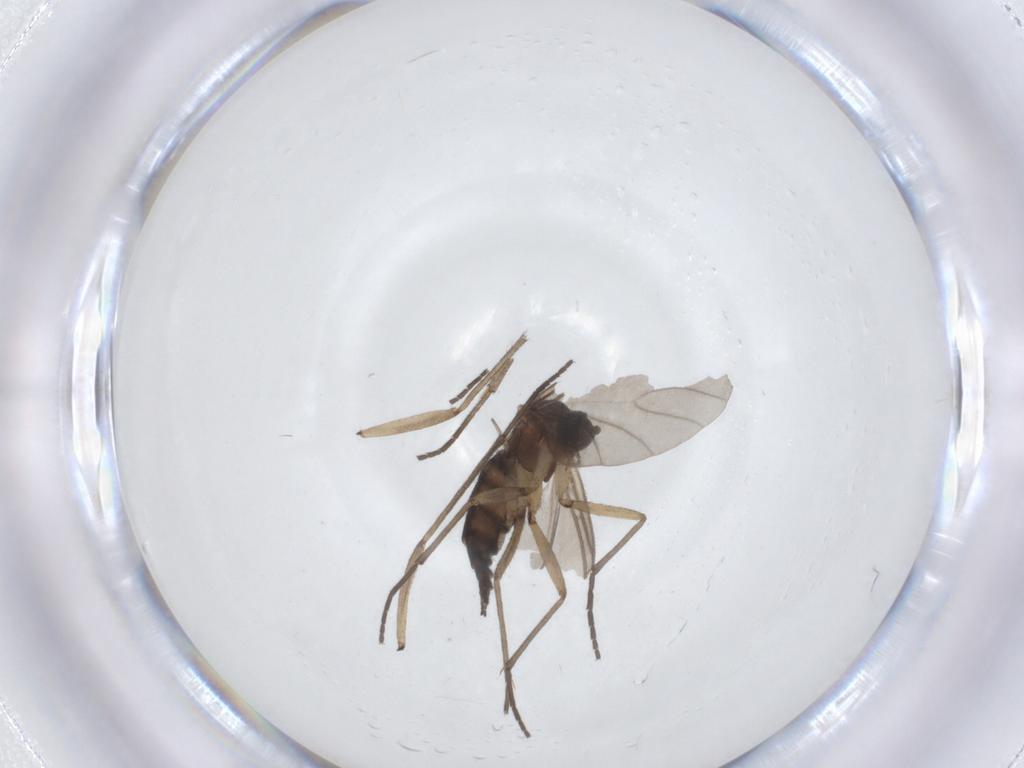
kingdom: Animalia
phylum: Arthropoda
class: Insecta
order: Diptera
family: Sciaridae
